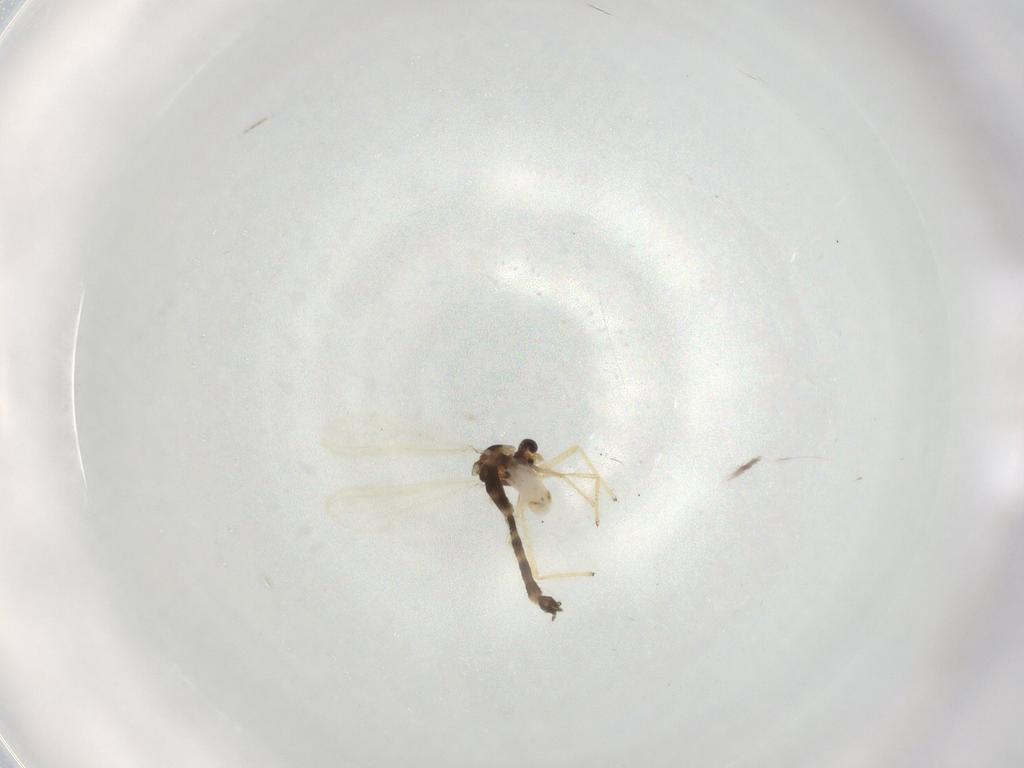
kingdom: Animalia
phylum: Arthropoda
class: Insecta
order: Diptera
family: Chironomidae
